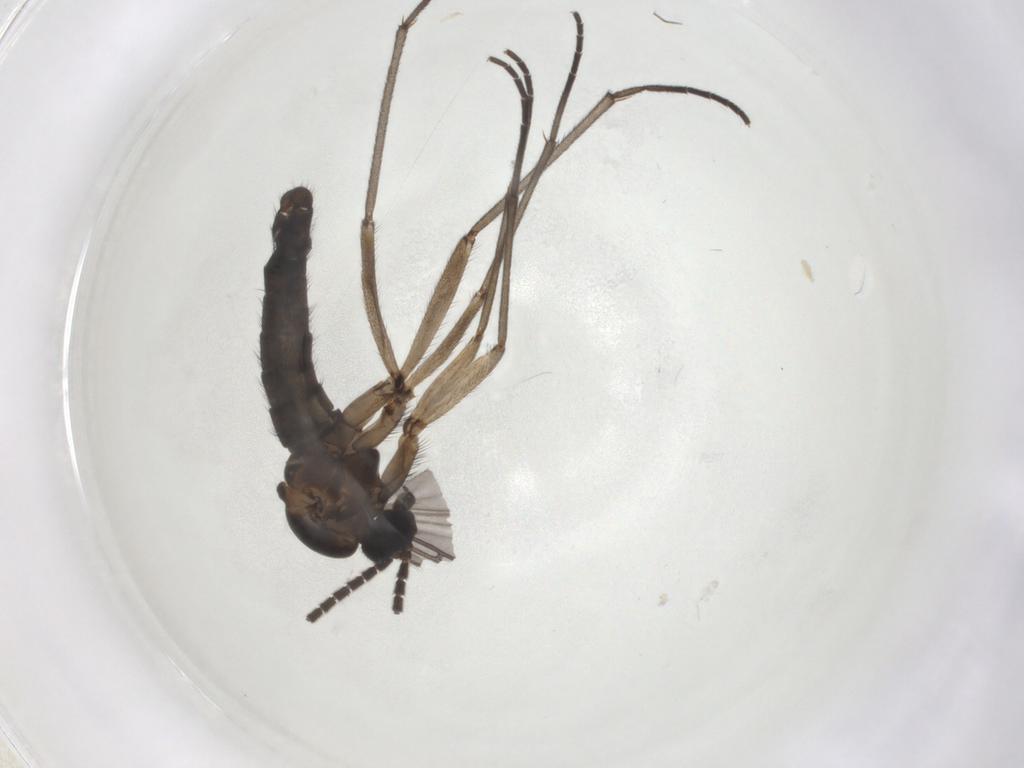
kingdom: Animalia
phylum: Arthropoda
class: Insecta
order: Diptera
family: Sciaridae
